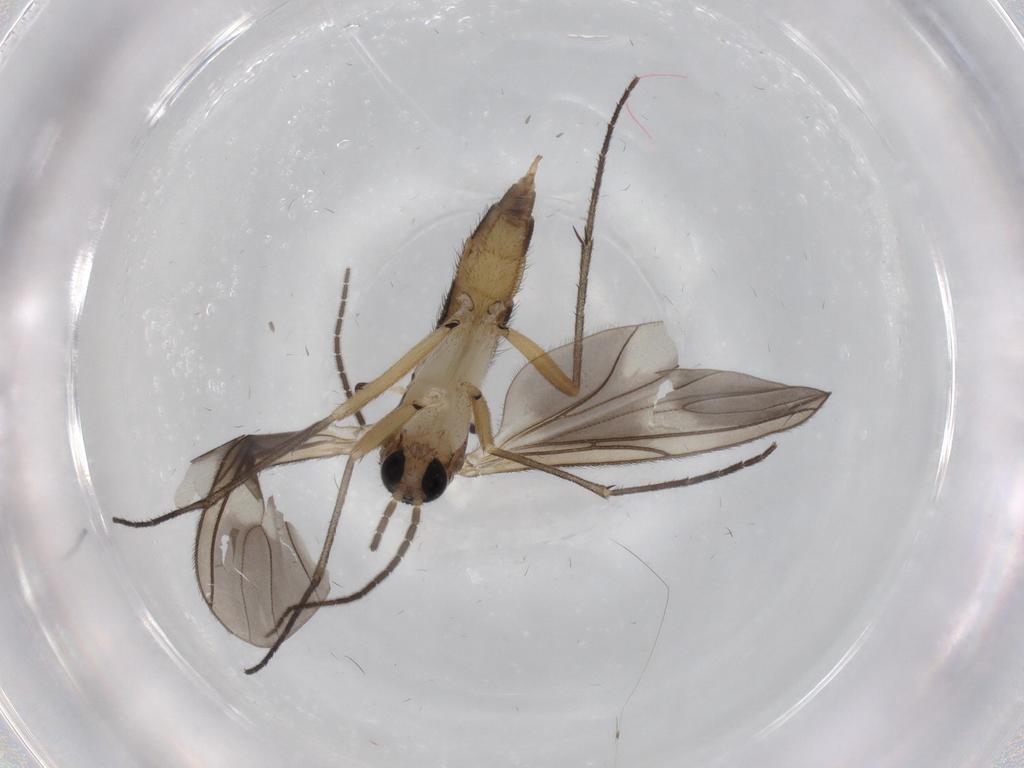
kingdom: Animalia
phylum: Arthropoda
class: Insecta
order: Diptera
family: Sciaridae
